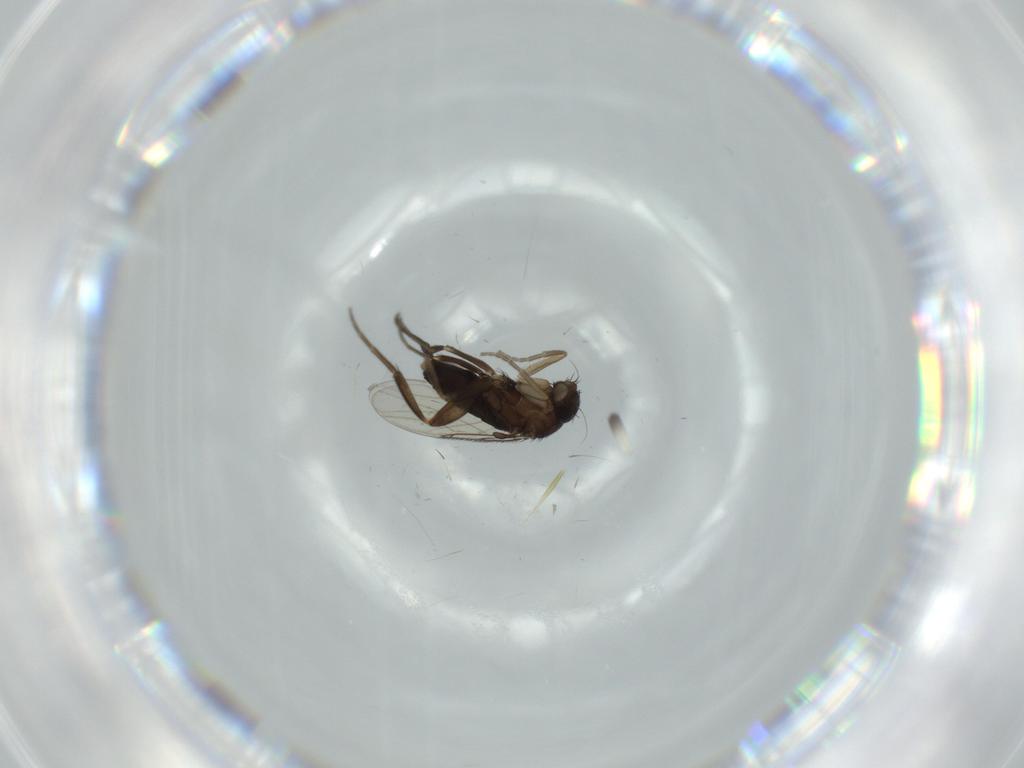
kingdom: Animalia
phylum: Arthropoda
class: Insecta
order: Diptera
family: Phoridae
